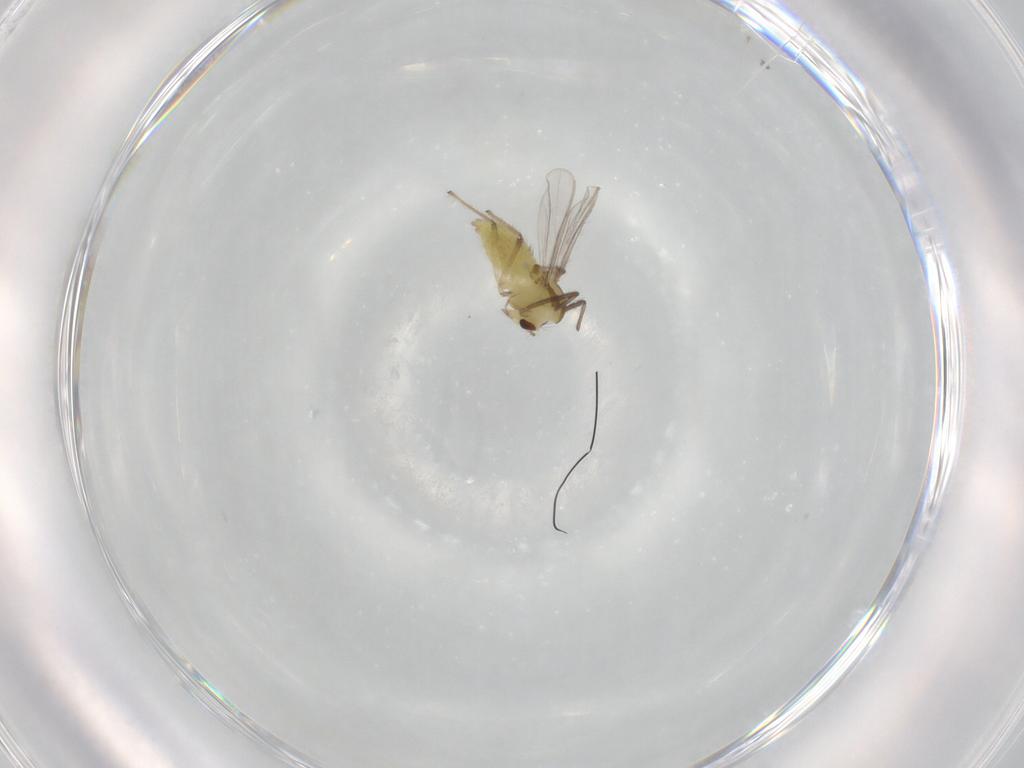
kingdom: Animalia
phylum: Arthropoda
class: Insecta
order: Diptera
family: Chironomidae
